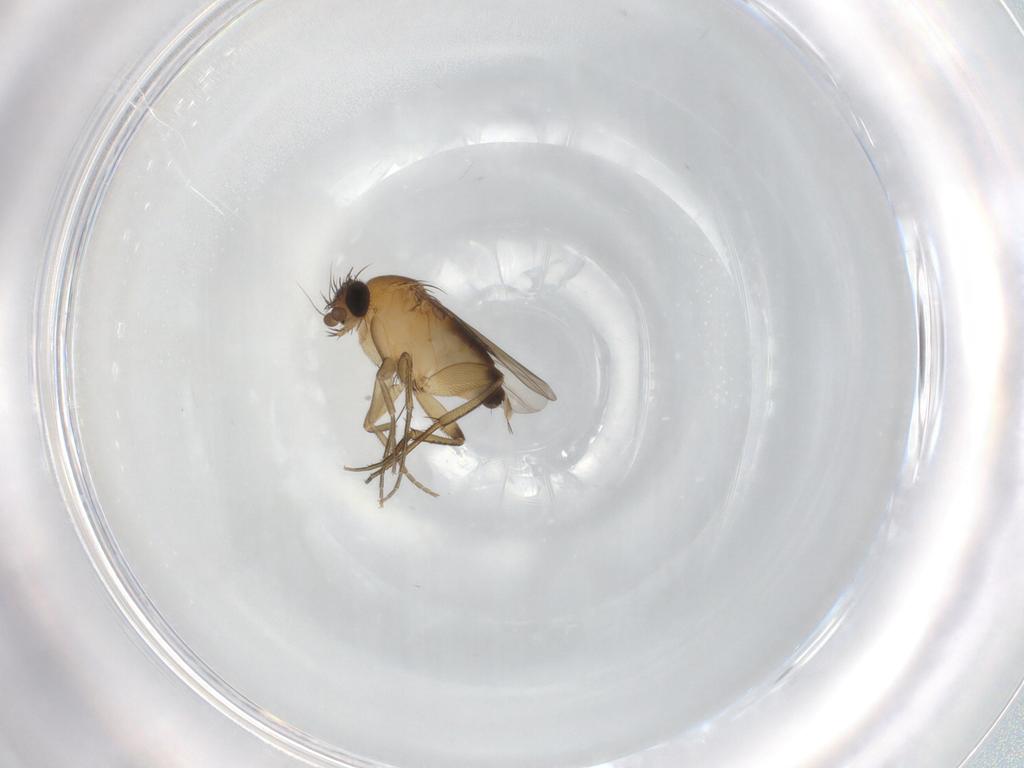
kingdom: Animalia
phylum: Arthropoda
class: Insecta
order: Diptera
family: Phoridae
